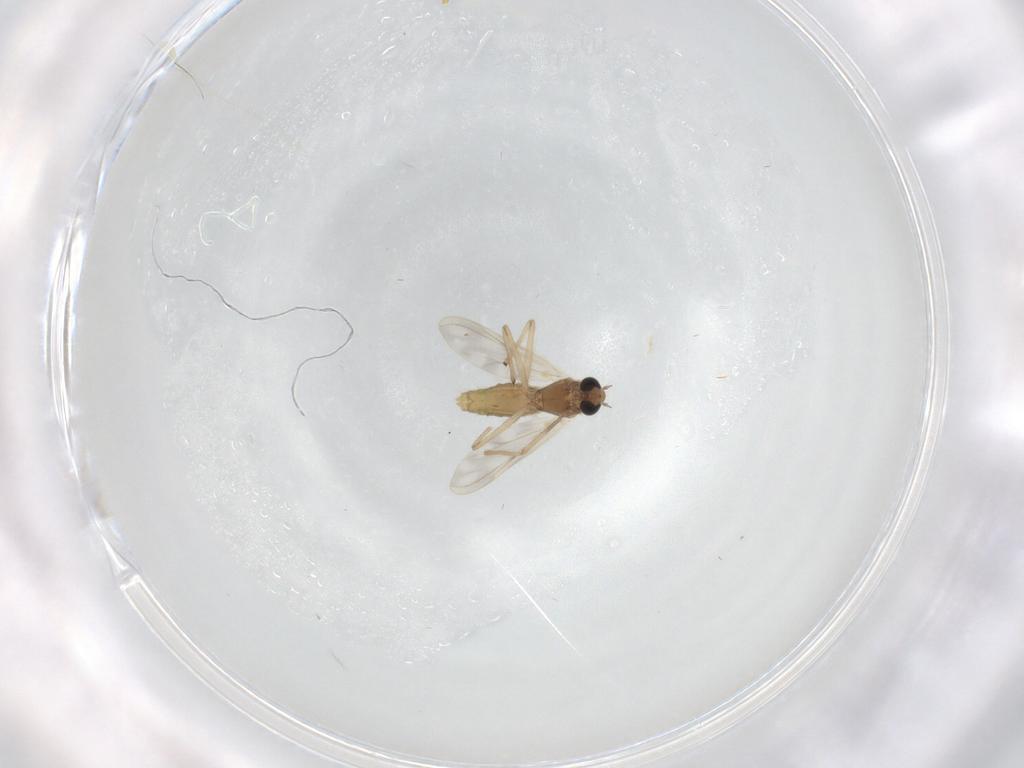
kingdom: Animalia
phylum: Arthropoda
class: Insecta
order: Diptera
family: Chironomidae
